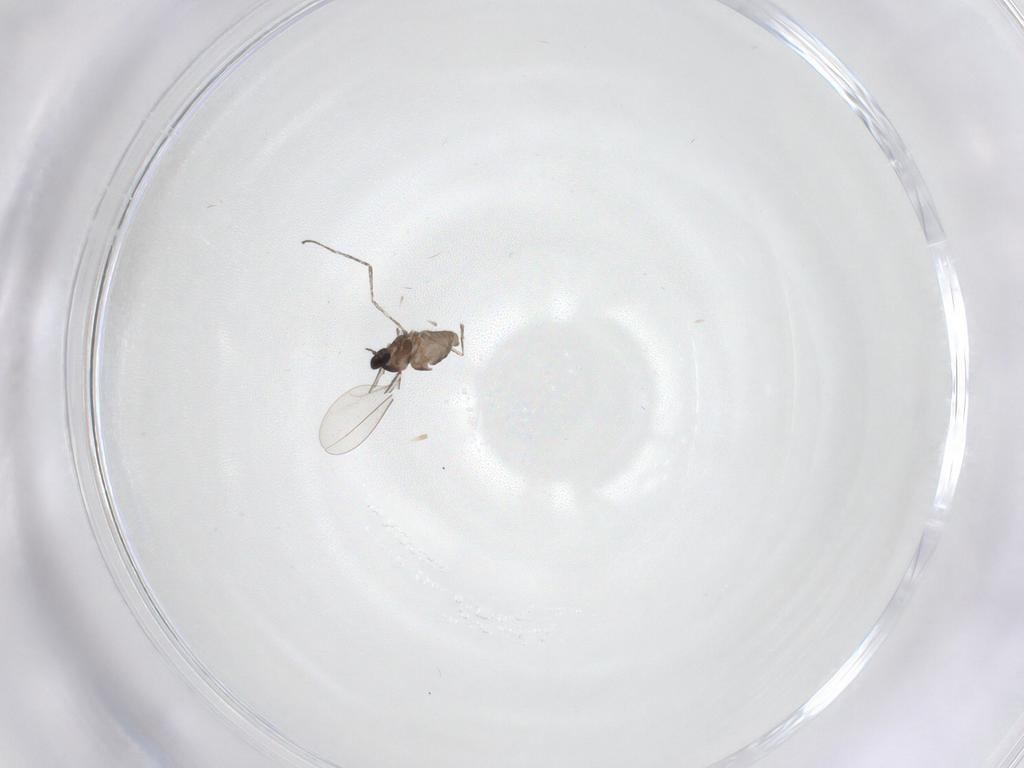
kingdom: Animalia
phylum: Arthropoda
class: Insecta
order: Diptera
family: Cecidomyiidae
